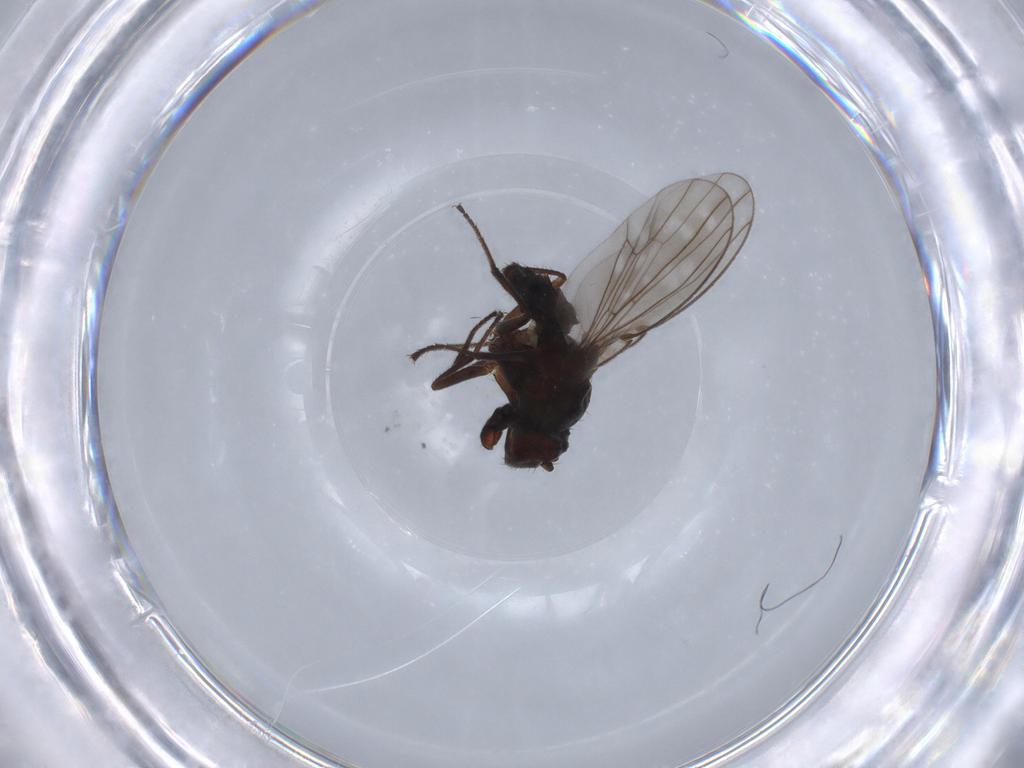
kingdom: Animalia
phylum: Arthropoda
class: Insecta
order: Diptera
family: Ephydridae
